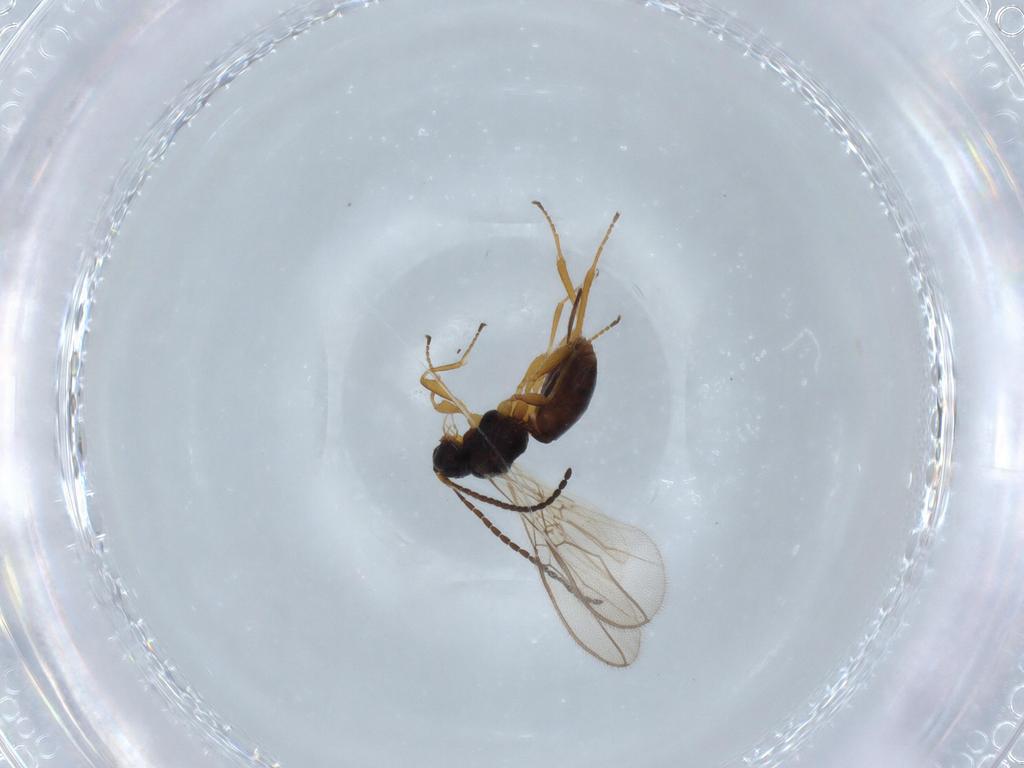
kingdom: Animalia
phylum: Arthropoda
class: Insecta
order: Hymenoptera
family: Braconidae
